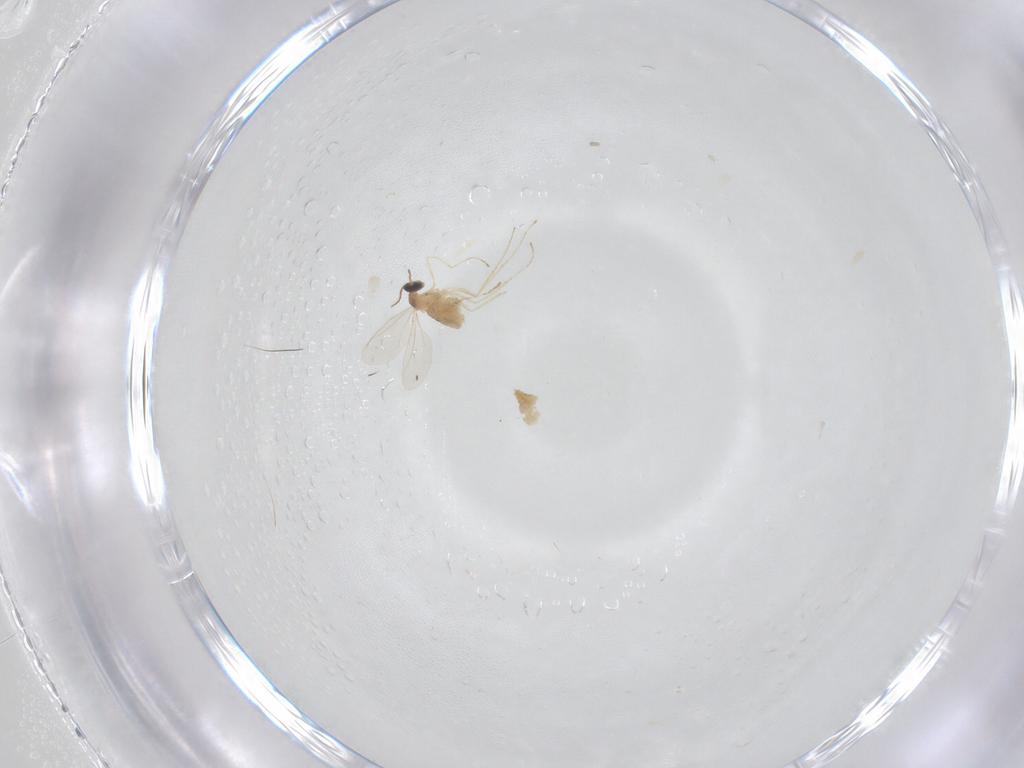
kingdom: Animalia
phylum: Arthropoda
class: Insecta
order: Diptera
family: Cecidomyiidae
